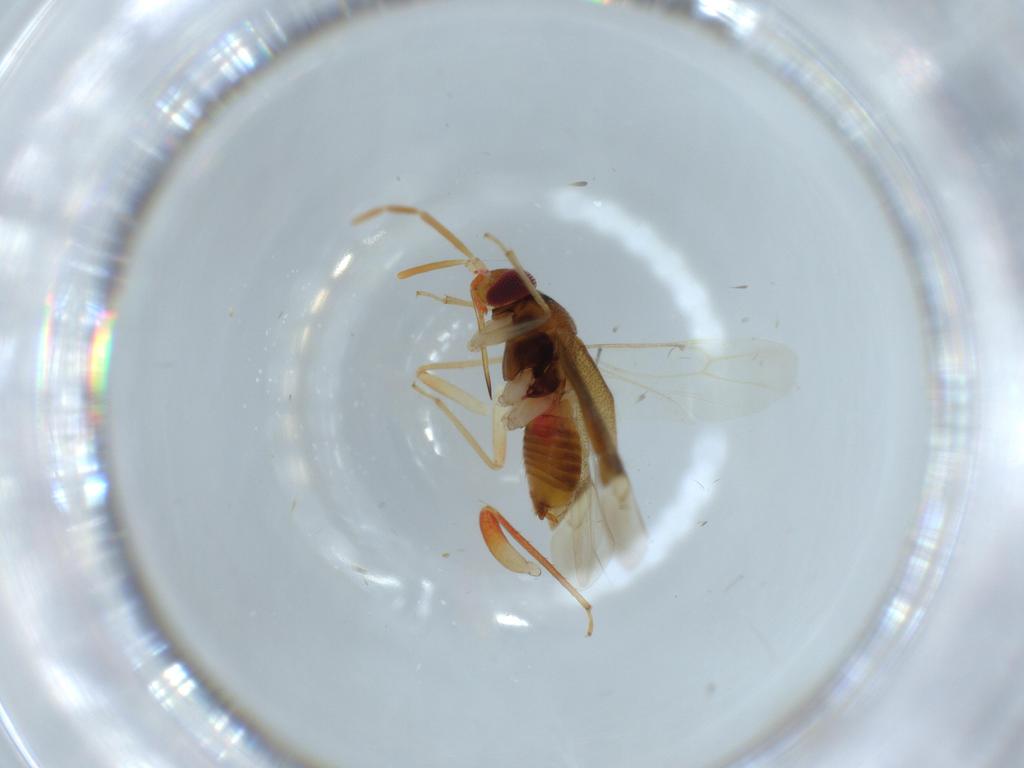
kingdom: Animalia
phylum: Arthropoda
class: Insecta
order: Hemiptera
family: Miridae
